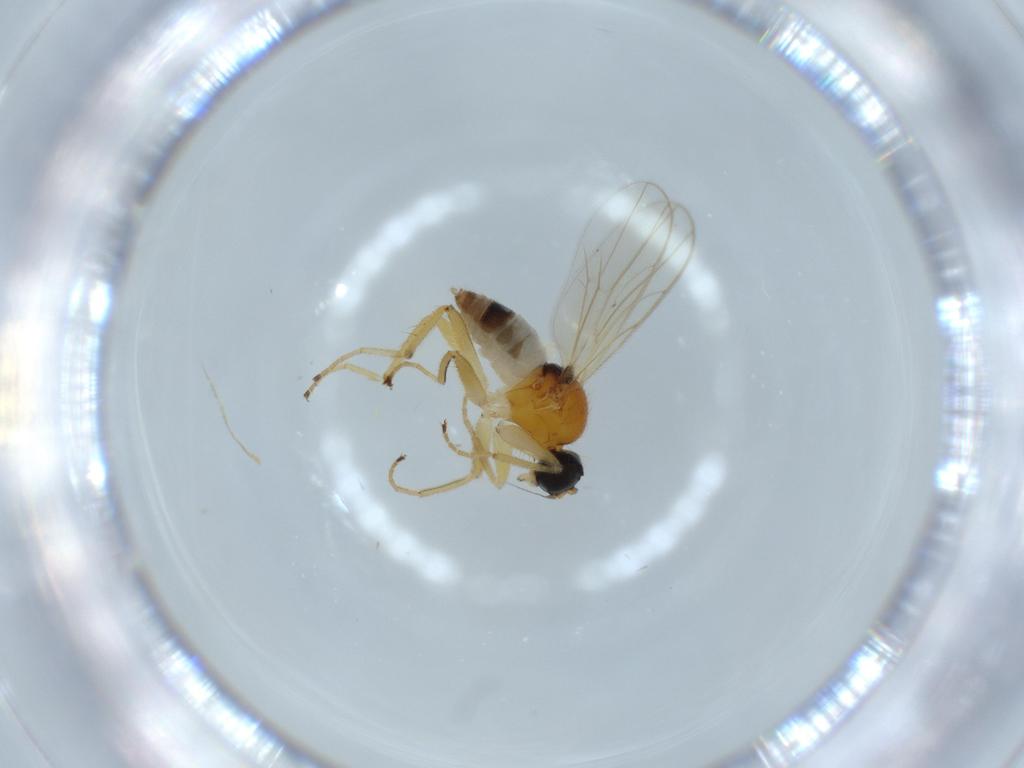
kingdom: Animalia
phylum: Arthropoda
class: Insecta
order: Diptera
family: Hybotidae
